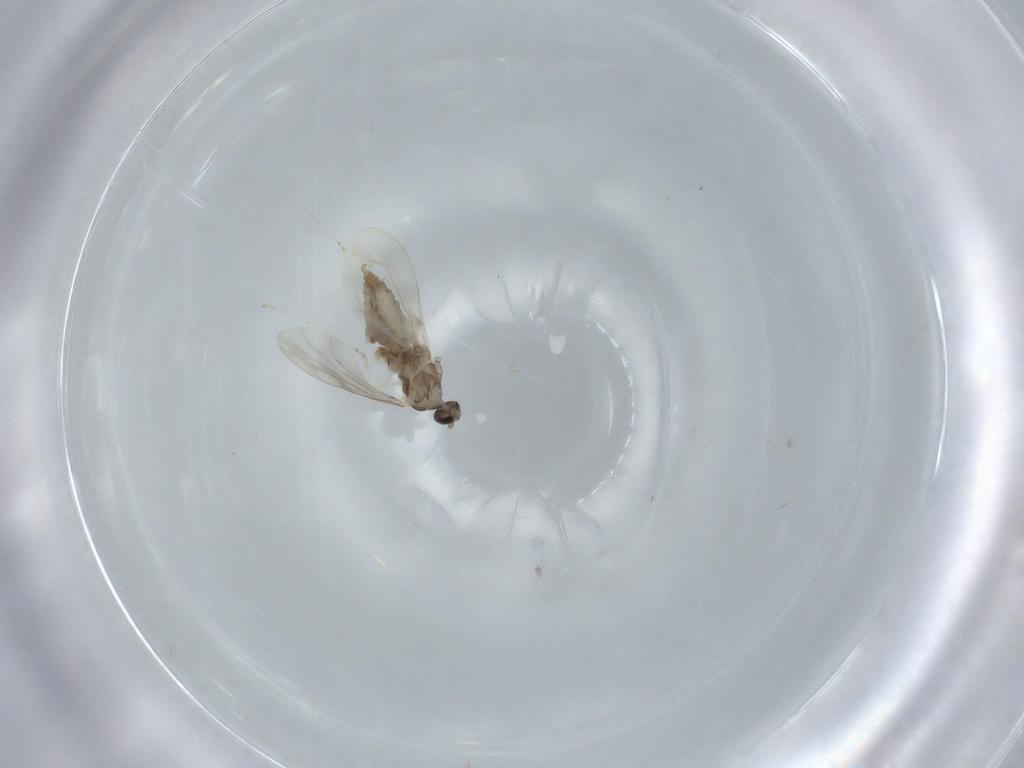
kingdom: Animalia
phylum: Arthropoda
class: Insecta
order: Diptera
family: Cecidomyiidae
